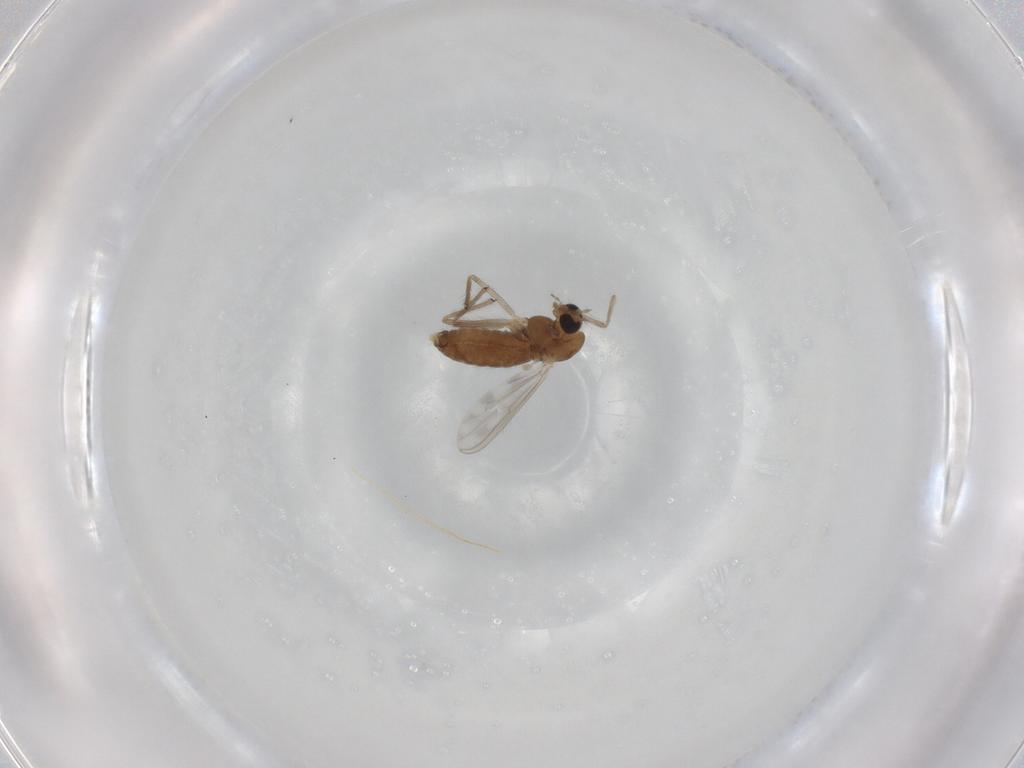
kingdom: Animalia
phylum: Arthropoda
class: Insecta
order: Diptera
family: Chironomidae
